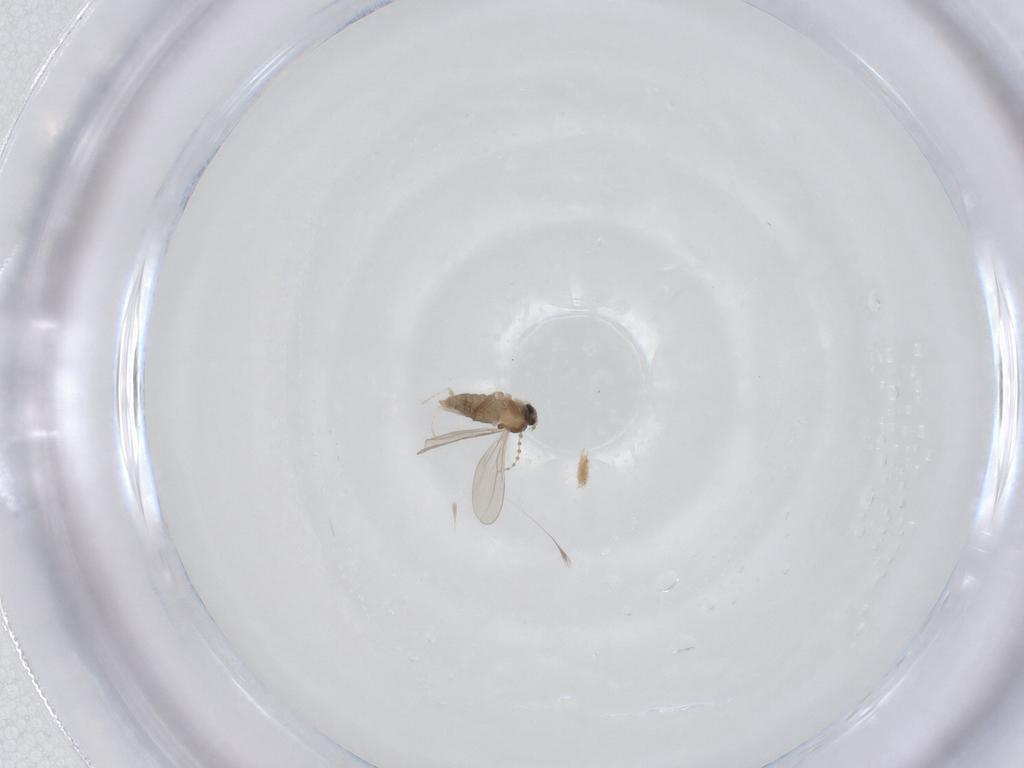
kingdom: Animalia
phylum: Arthropoda
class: Insecta
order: Diptera
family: Cecidomyiidae
